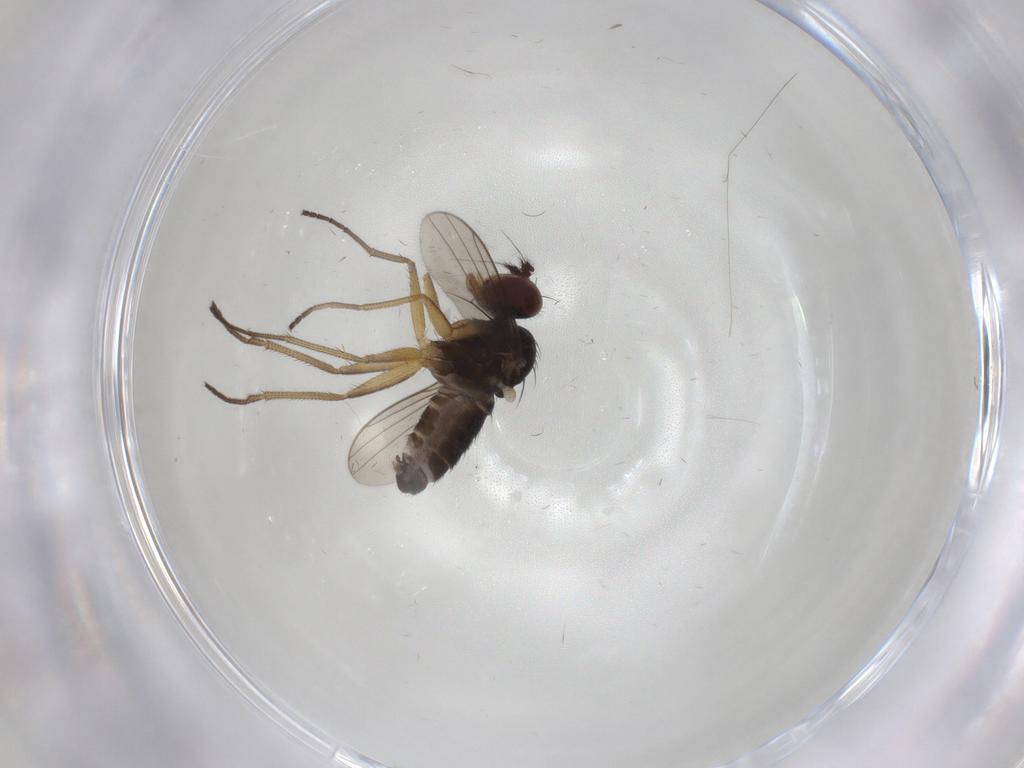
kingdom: Animalia
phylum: Arthropoda
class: Insecta
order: Diptera
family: Dolichopodidae
